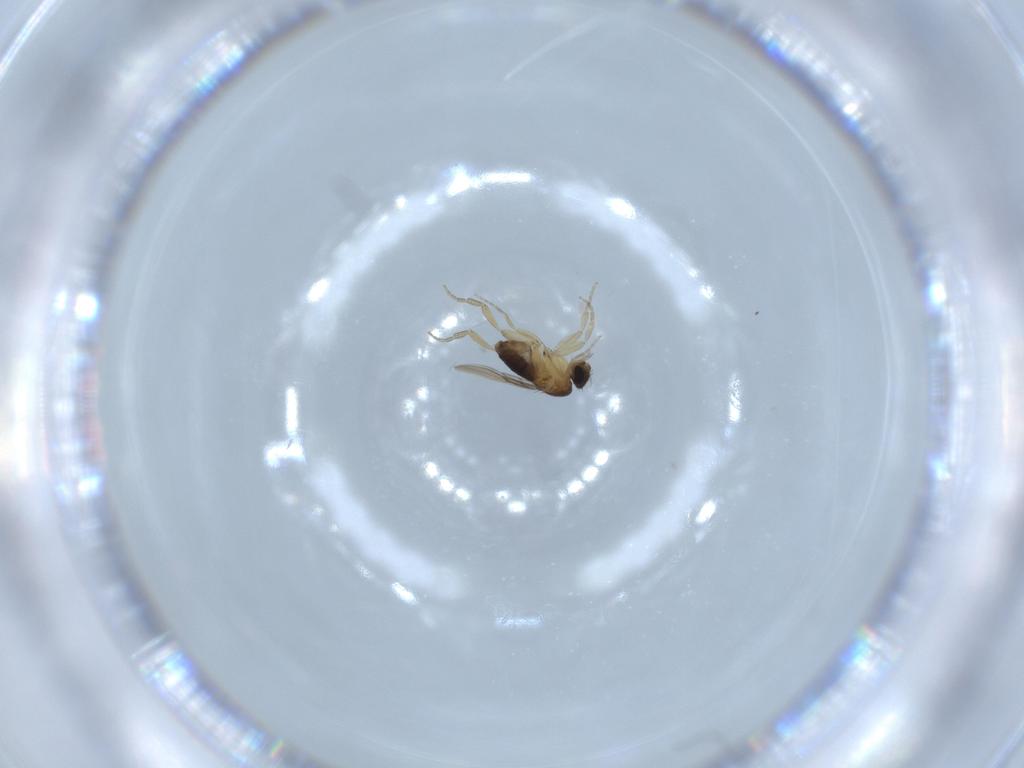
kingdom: Animalia
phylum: Arthropoda
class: Insecta
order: Diptera
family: Phoridae
